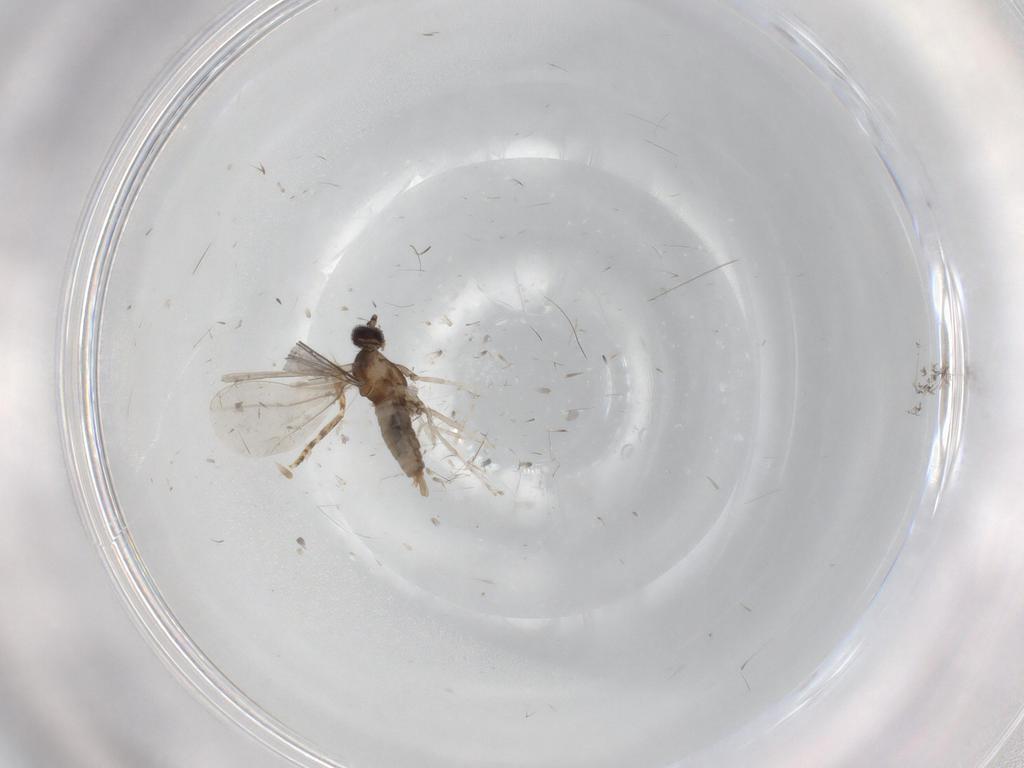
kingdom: Animalia
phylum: Arthropoda
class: Insecta
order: Diptera
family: Cecidomyiidae
